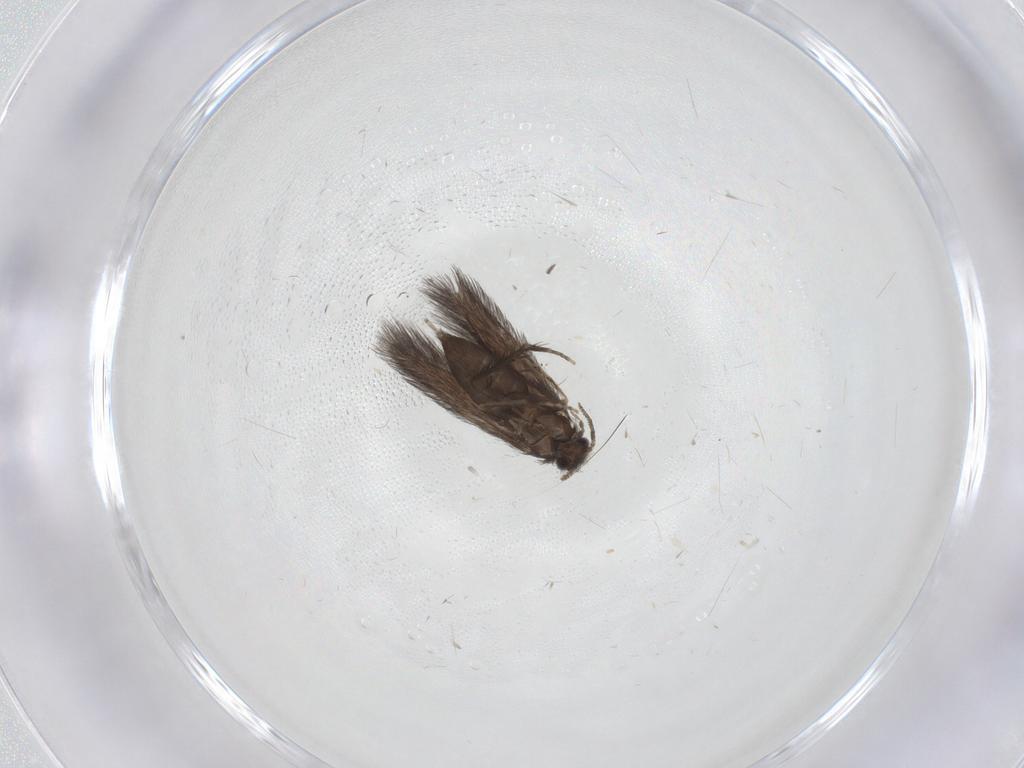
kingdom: Animalia
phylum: Arthropoda
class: Insecta
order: Trichoptera
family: Hydroptilidae
